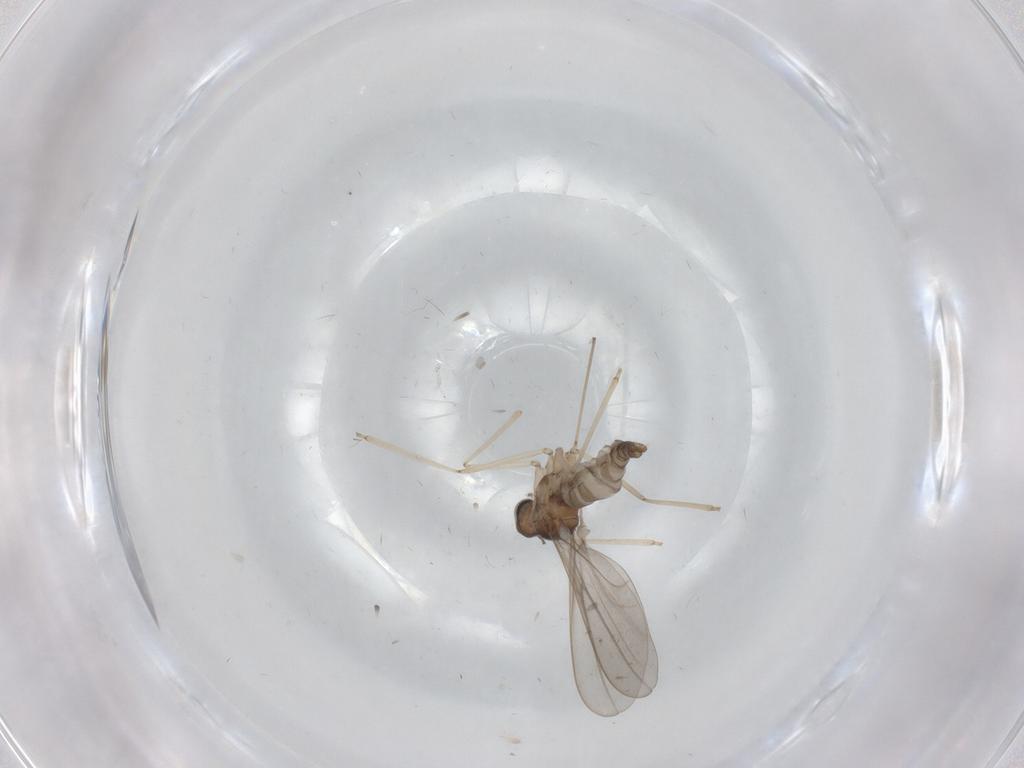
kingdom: Animalia
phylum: Arthropoda
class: Insecta
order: Diptera
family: Cecidomyiidae
